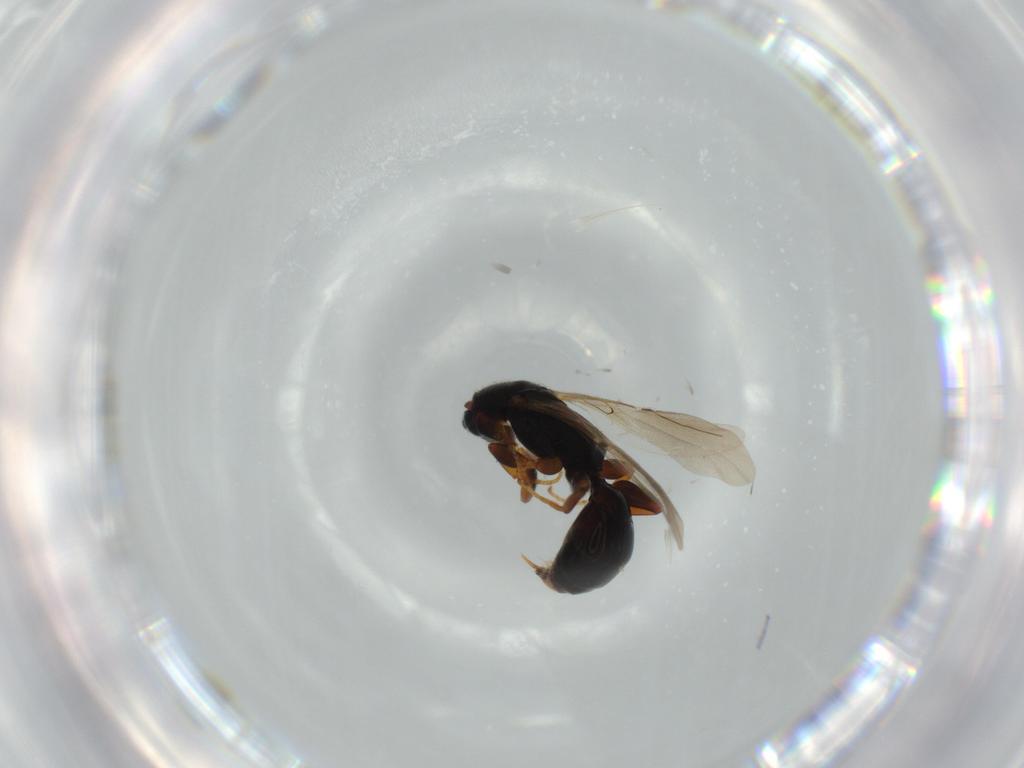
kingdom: Animalia
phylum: Arthropoda
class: Insecta
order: Hymenoptera
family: Bethylidae
